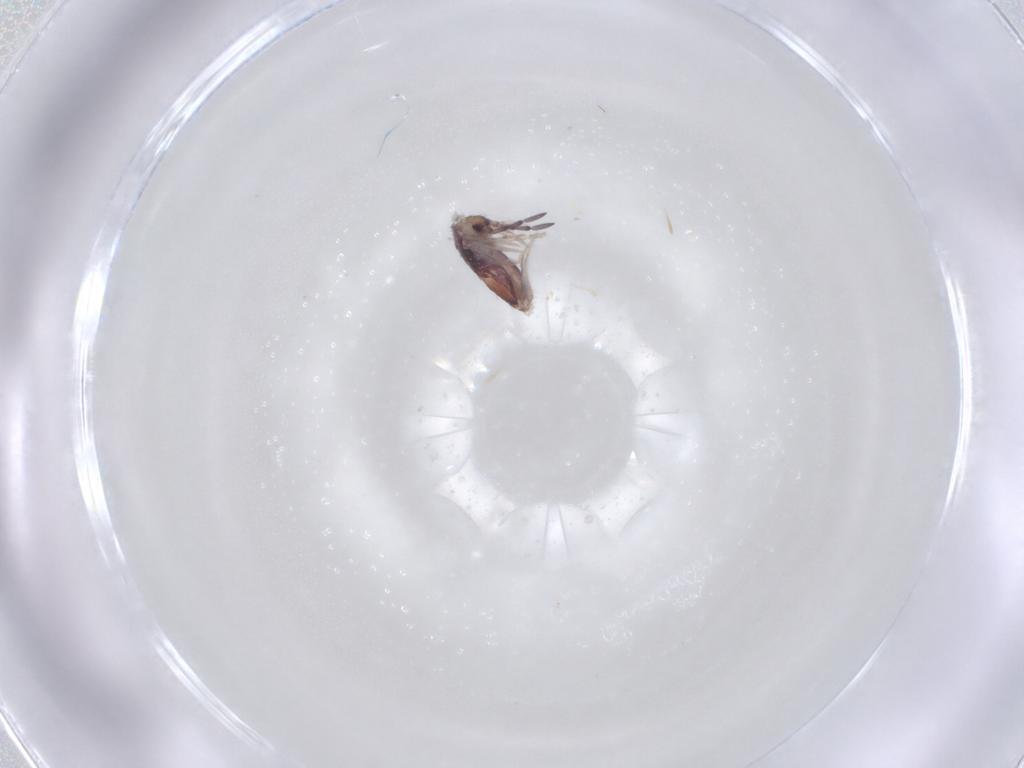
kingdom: Animalia
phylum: Arthropoda
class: Collembola
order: Entomobryomorpha
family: Entomobryidae
